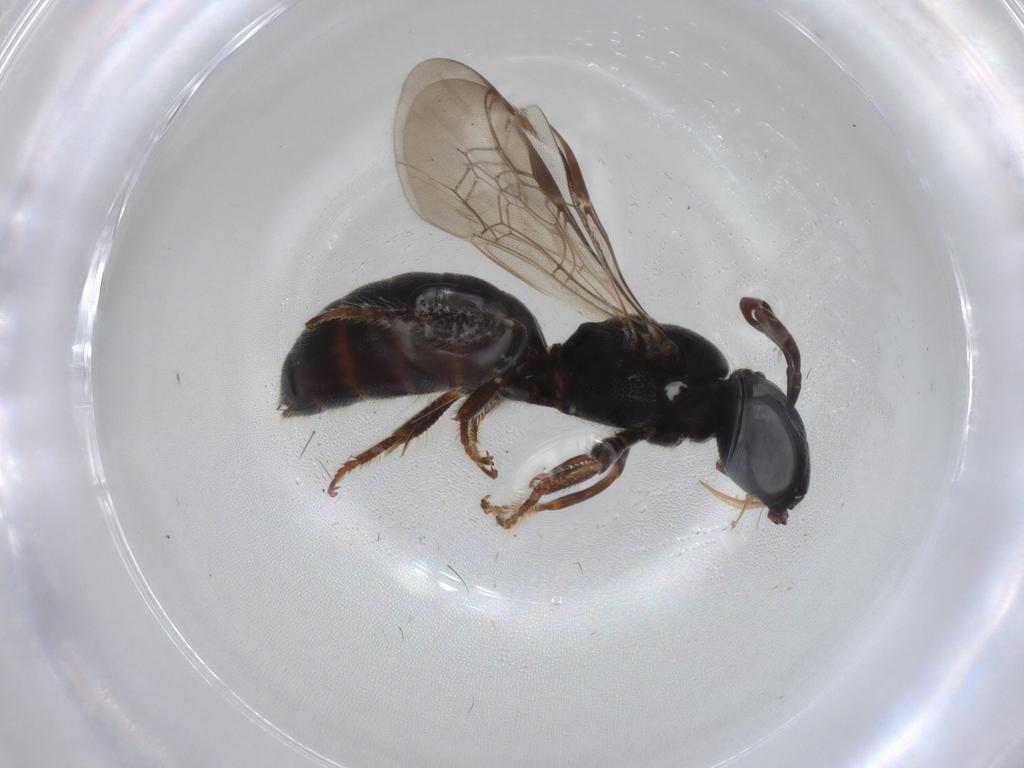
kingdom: Animalia
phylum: Arthropoda
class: Insecta
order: Hymenoptera
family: Apidae
